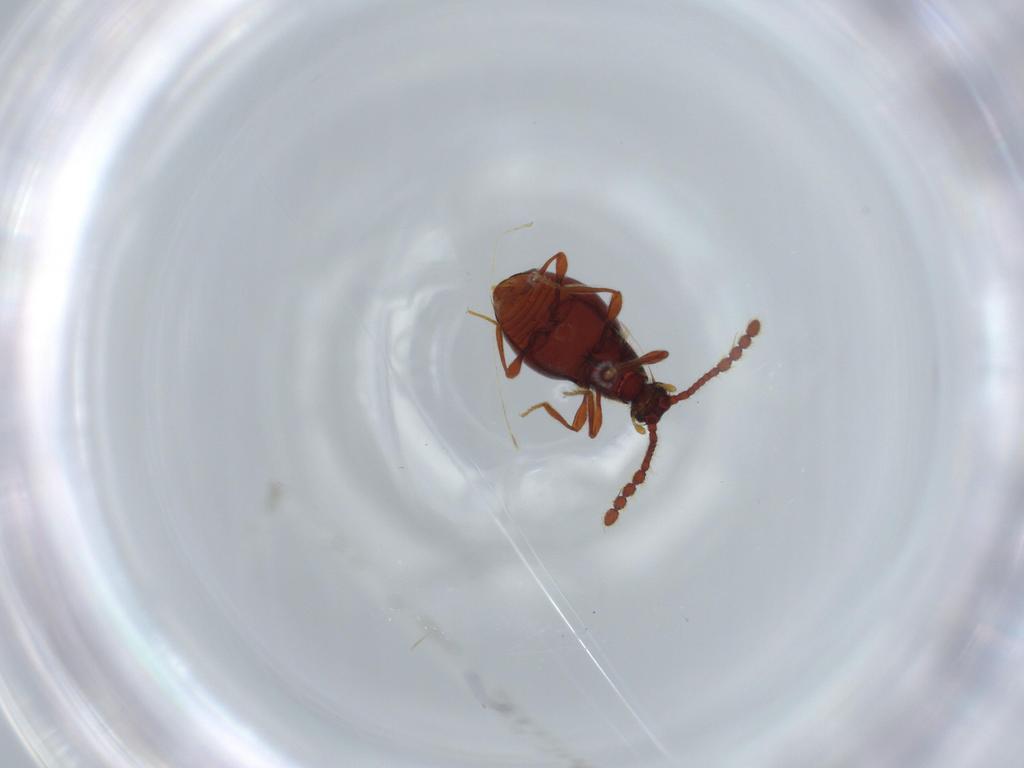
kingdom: Animalia
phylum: Arthropoda
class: Insecta
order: Coleoptera
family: Staphylinidae
